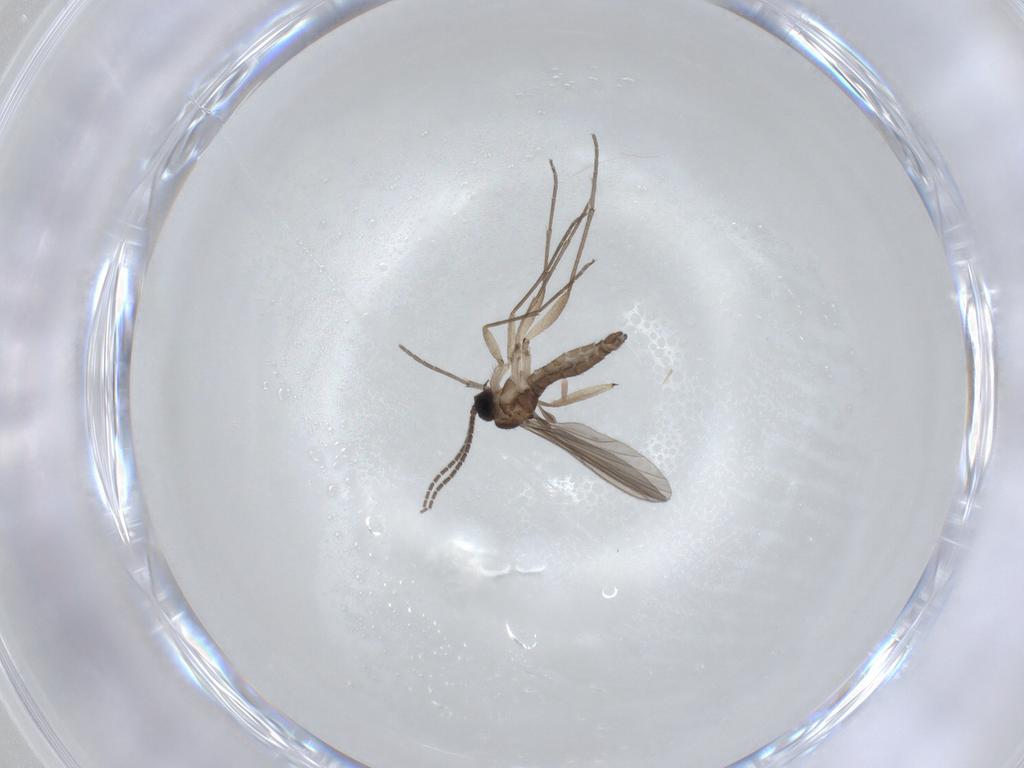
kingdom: Animalia
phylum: Arthropoda
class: Insecta
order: Diptera
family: Sciaridae
